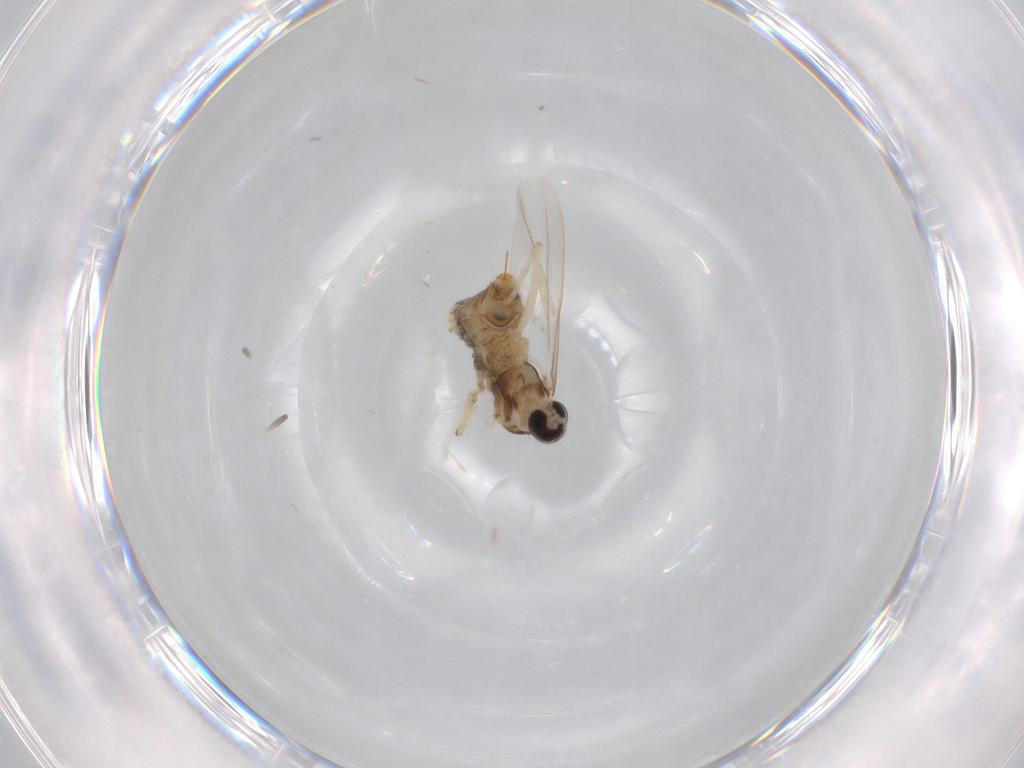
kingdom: Animalia
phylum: Arthropoda
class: Insecta
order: Diptera
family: Cecidomyiidae
